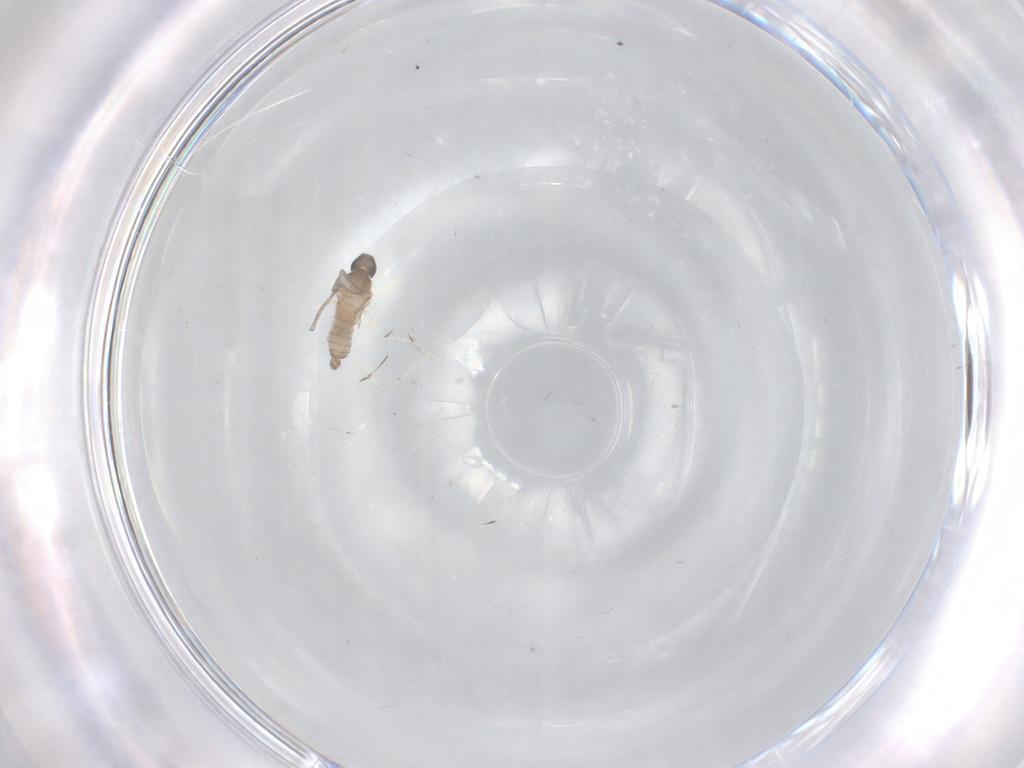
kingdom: Animalia
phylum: Arthropoda
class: Insecta
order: Diptera
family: Cecidomyiidae
